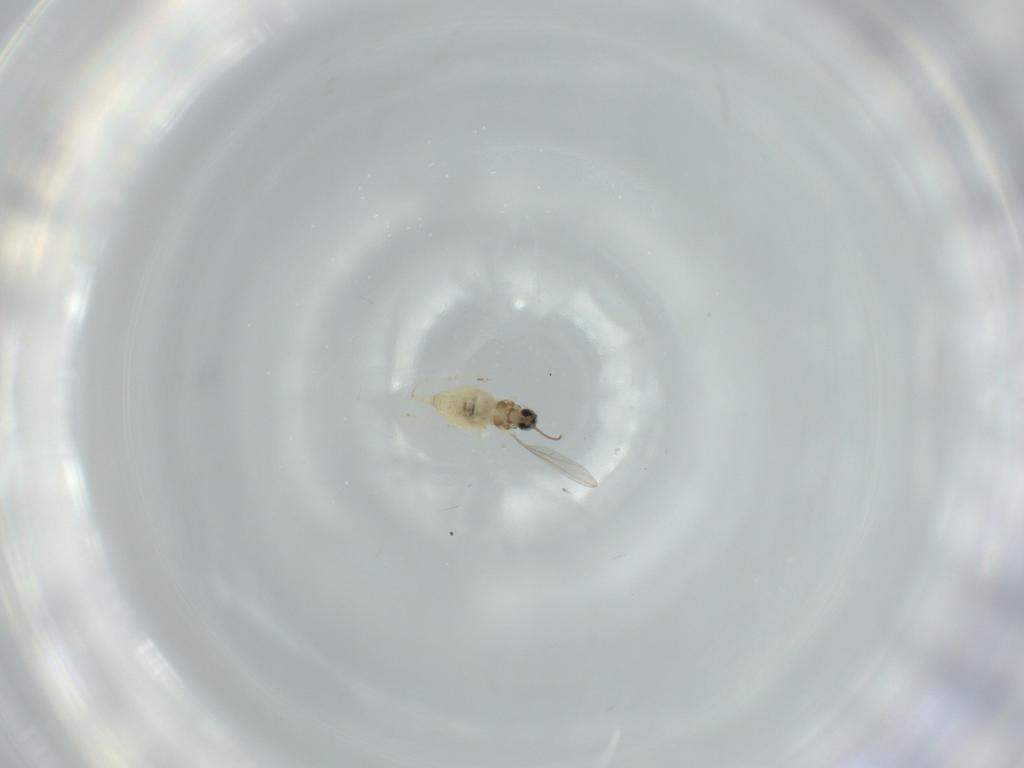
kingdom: Animalia
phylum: Arthropoda
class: Insecta
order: Diptera
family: Cecidomyiidae
